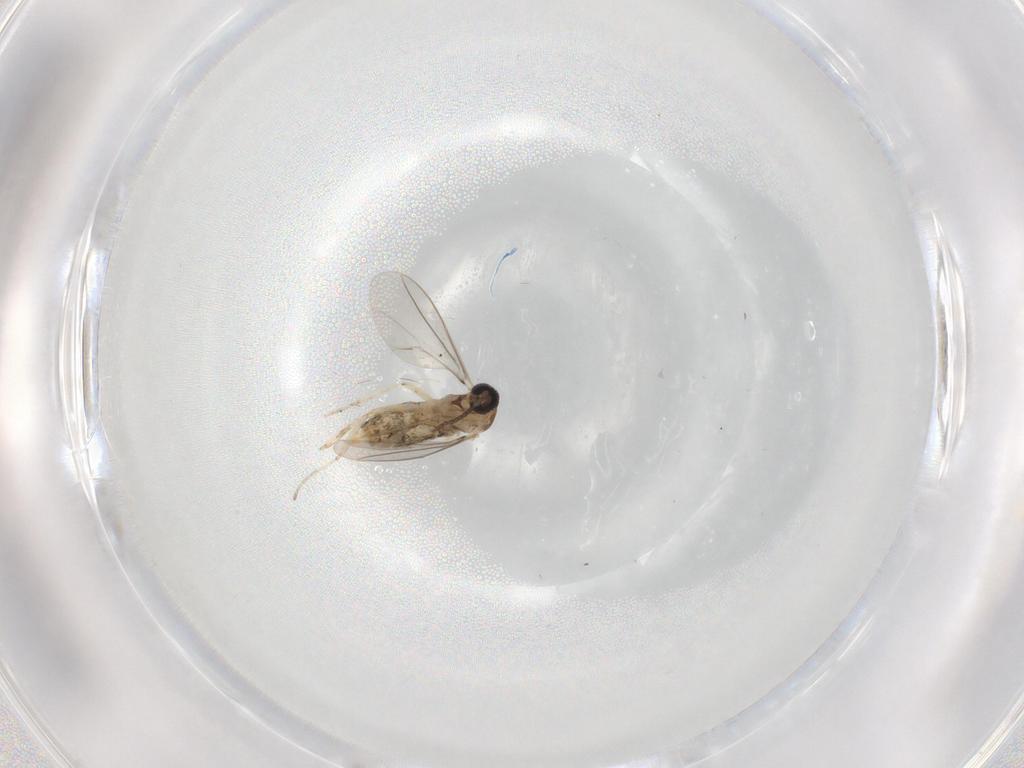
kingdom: Animalia
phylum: Arthropoda
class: Insecta
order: Diptera
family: Cecidomyiidae
